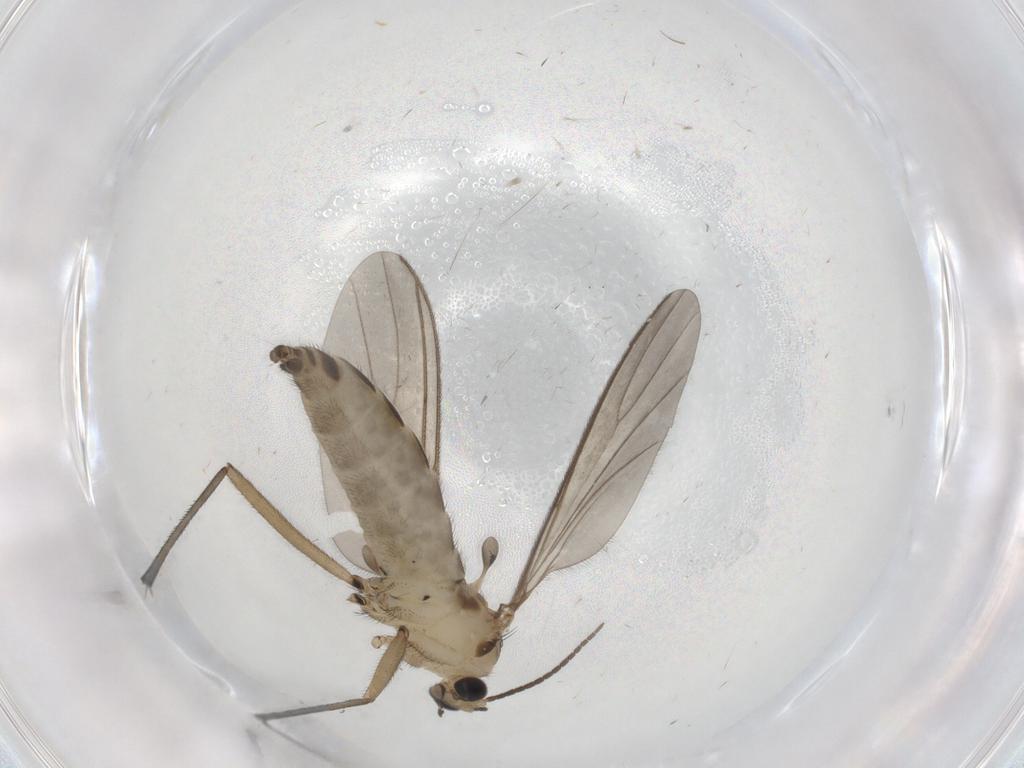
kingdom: Animalia
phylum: Arthropoda
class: Insecta
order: Diptera
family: Sciaridae
